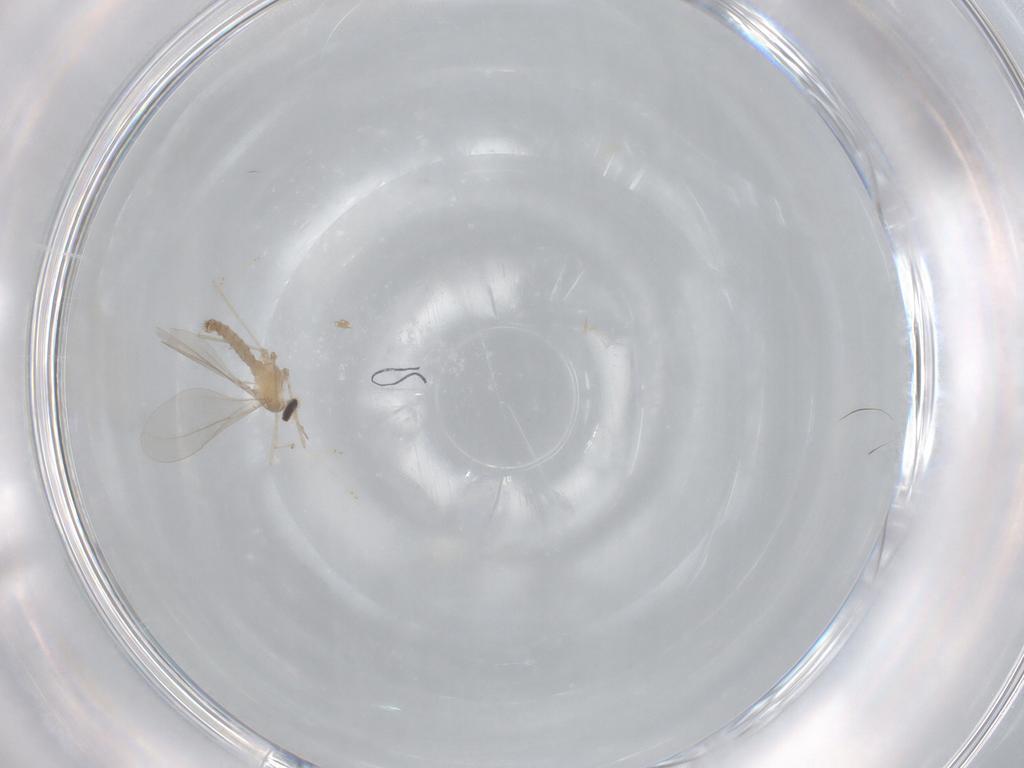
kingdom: Animalia
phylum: Arthropoda
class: Insecta
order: Diptera
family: Cecidomyiidae
